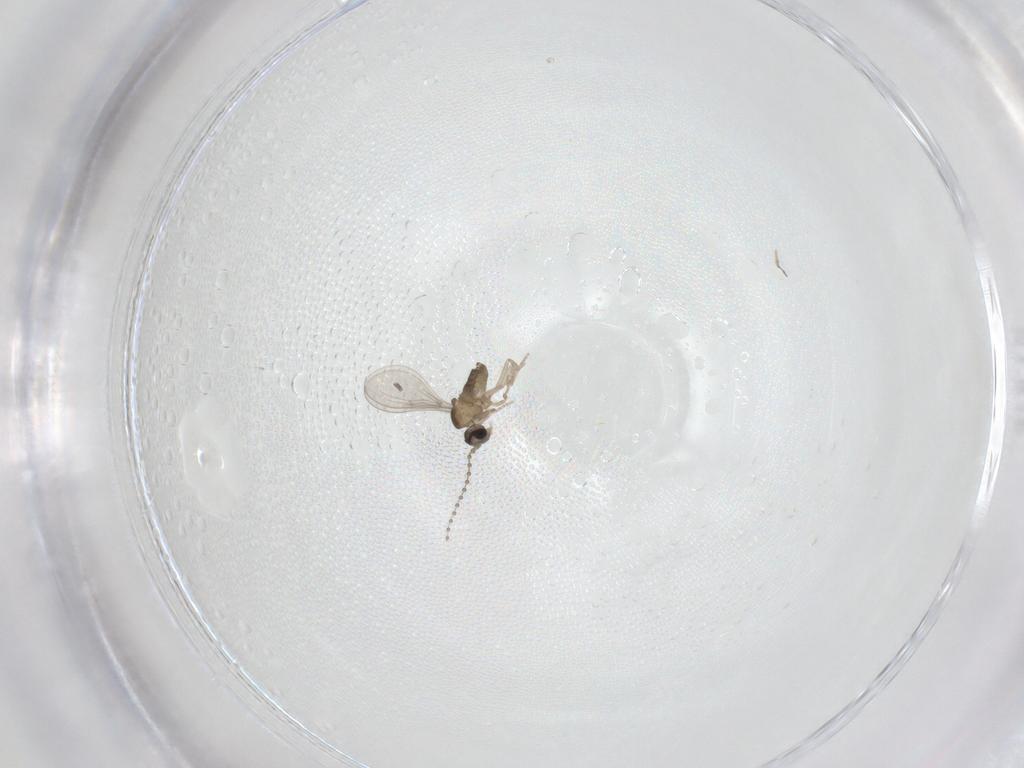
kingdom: Animalia
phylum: Arthropoda
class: Insecta
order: Diptera
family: Cecidomyiidae
